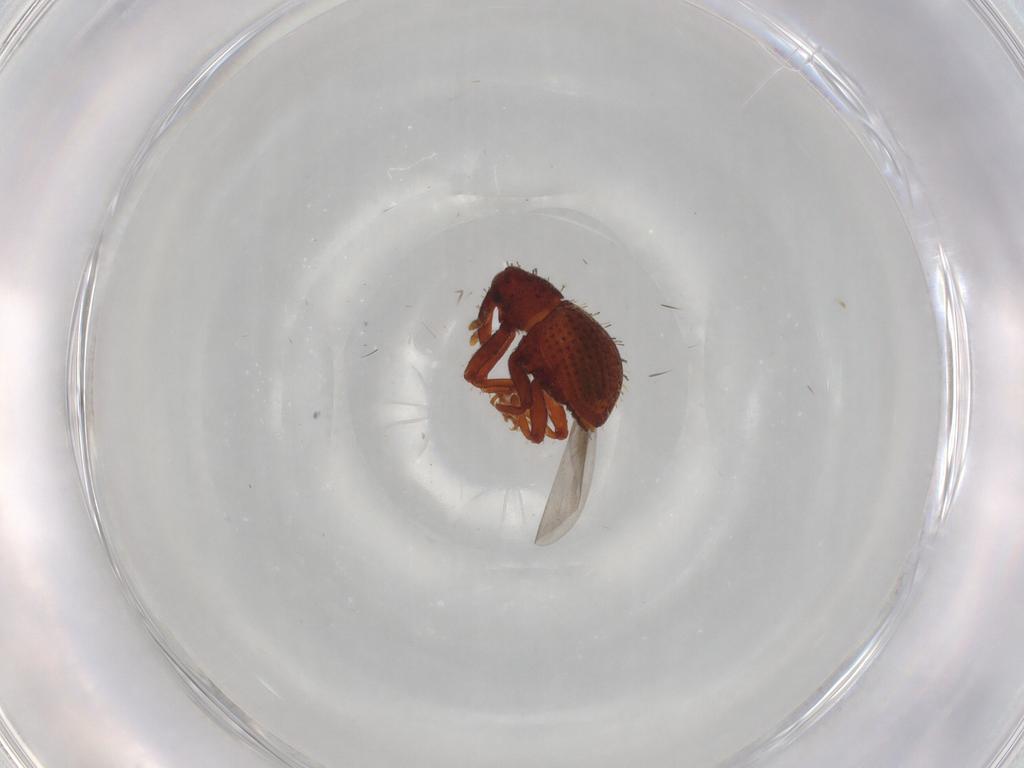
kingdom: Animalia
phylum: Arthropoda
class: Insecta
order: Coleoptera
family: Curculionidae
